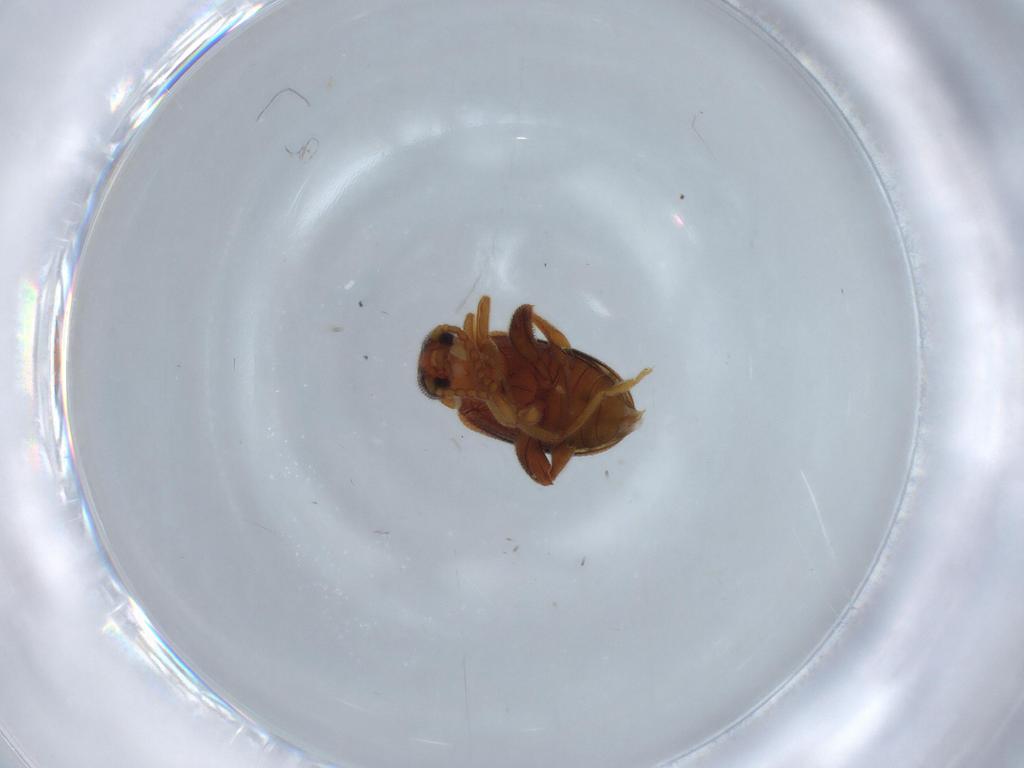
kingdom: Animalia
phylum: Arthropoda
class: Insecta
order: Coleoptera
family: Aderidae
